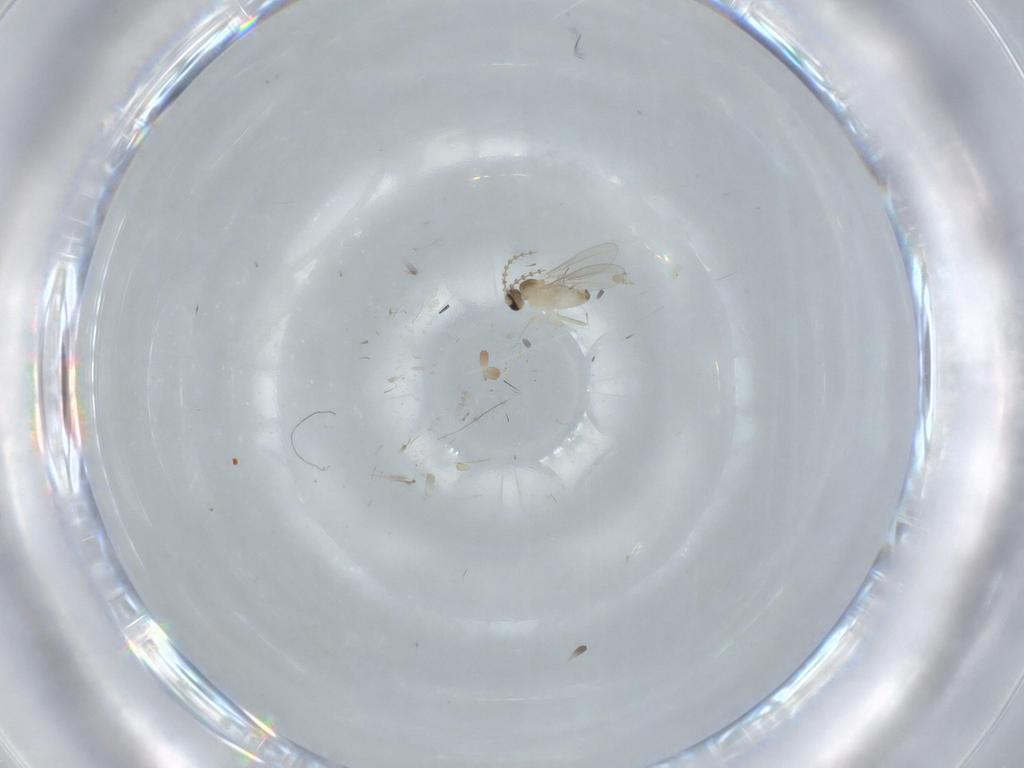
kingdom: Animalia
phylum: Arthropoda
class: Insecta
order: Diptera
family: Cecidomyiidae
